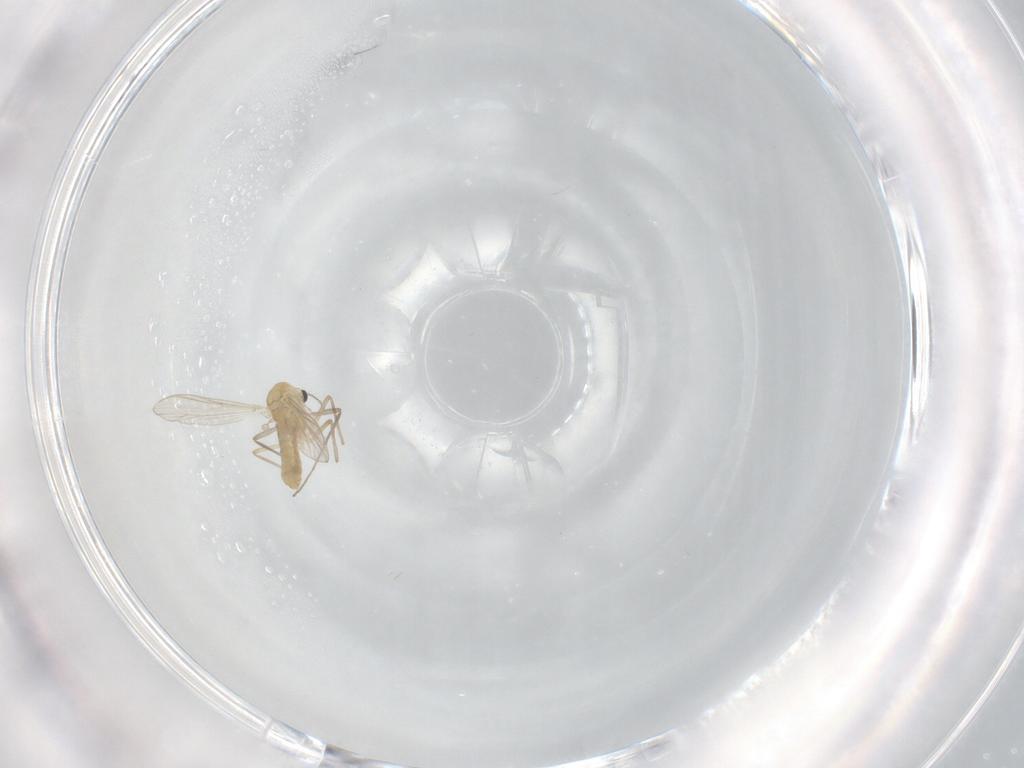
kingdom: Animalia
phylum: Arthropoda
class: Insecta
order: Diptera
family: Chironomidae
